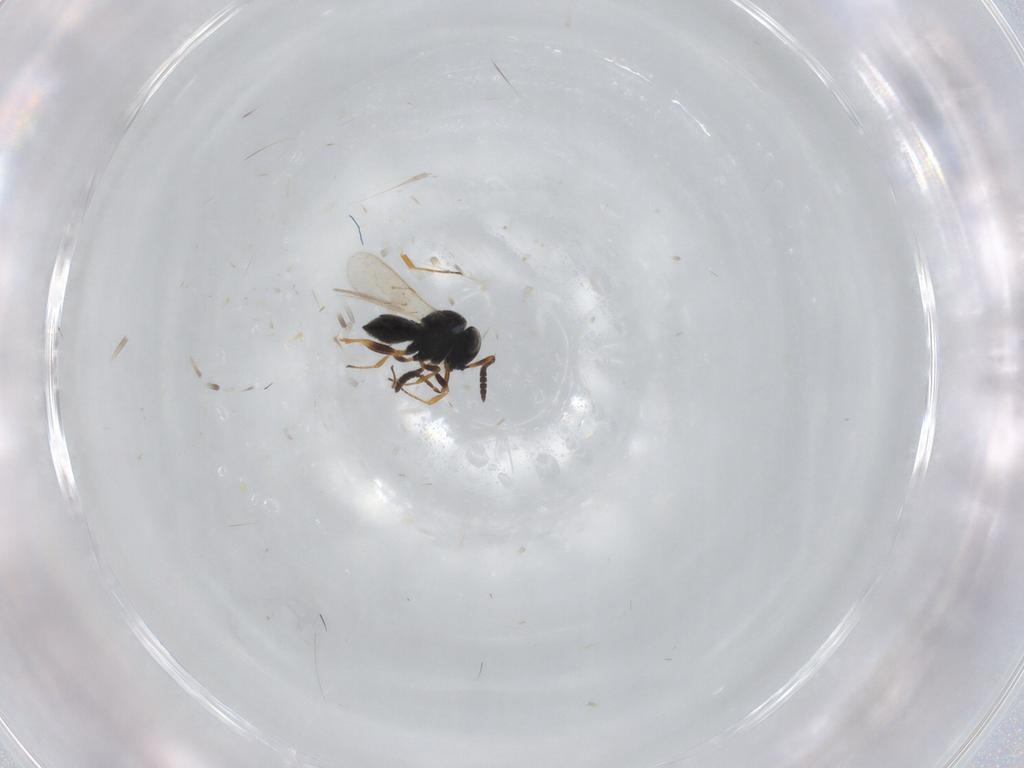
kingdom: Animalia
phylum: Arthropoda
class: Insecta
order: Hymenoptera
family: Scelionidae
